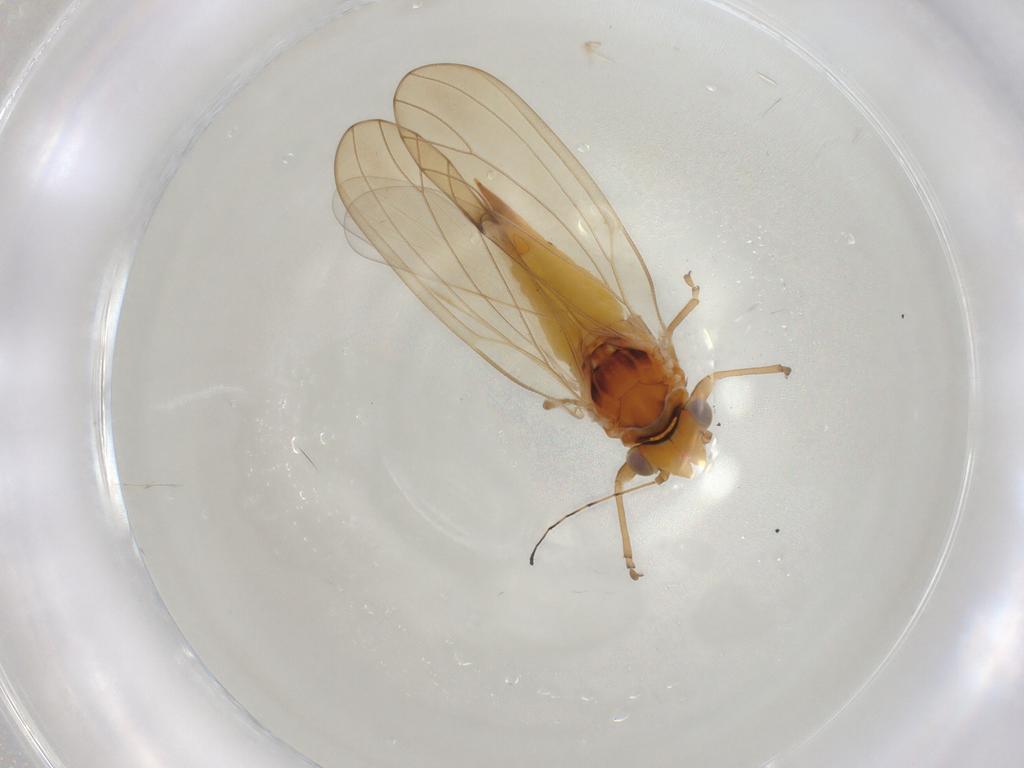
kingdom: Animalia
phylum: Arthropoda
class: Insecta
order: Hemiptera
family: Psylloidea_incertae_sedis
